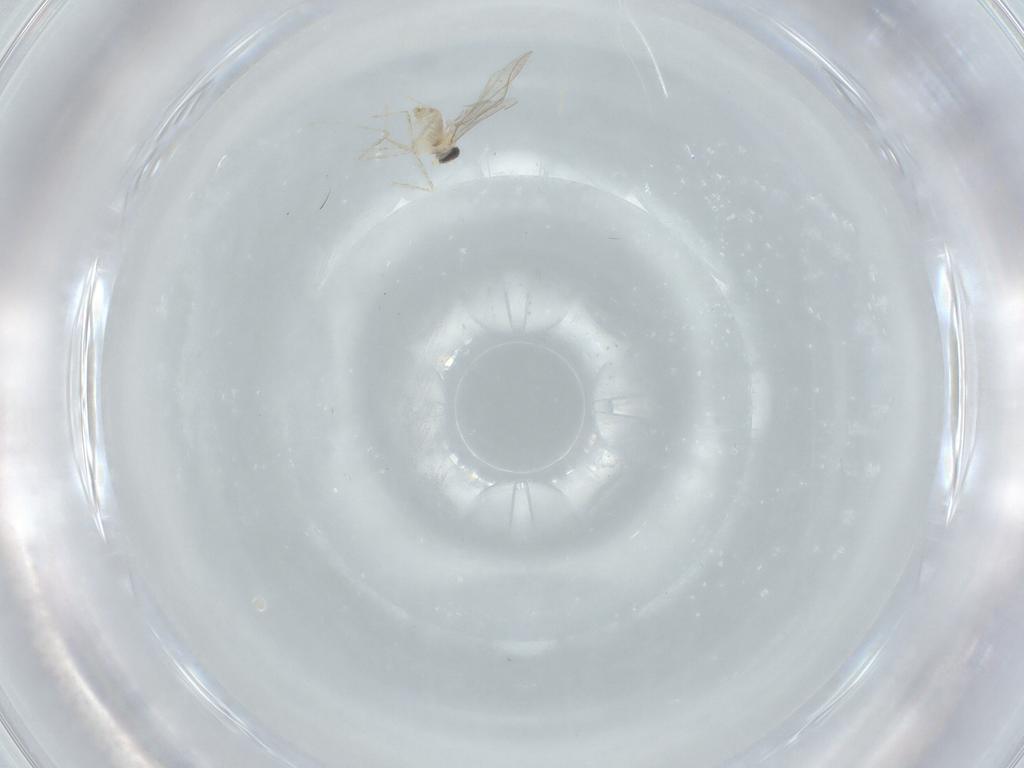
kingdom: Animalia
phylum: Arthropoda
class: Insecta
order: Diptera
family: Cecidomyiidae
